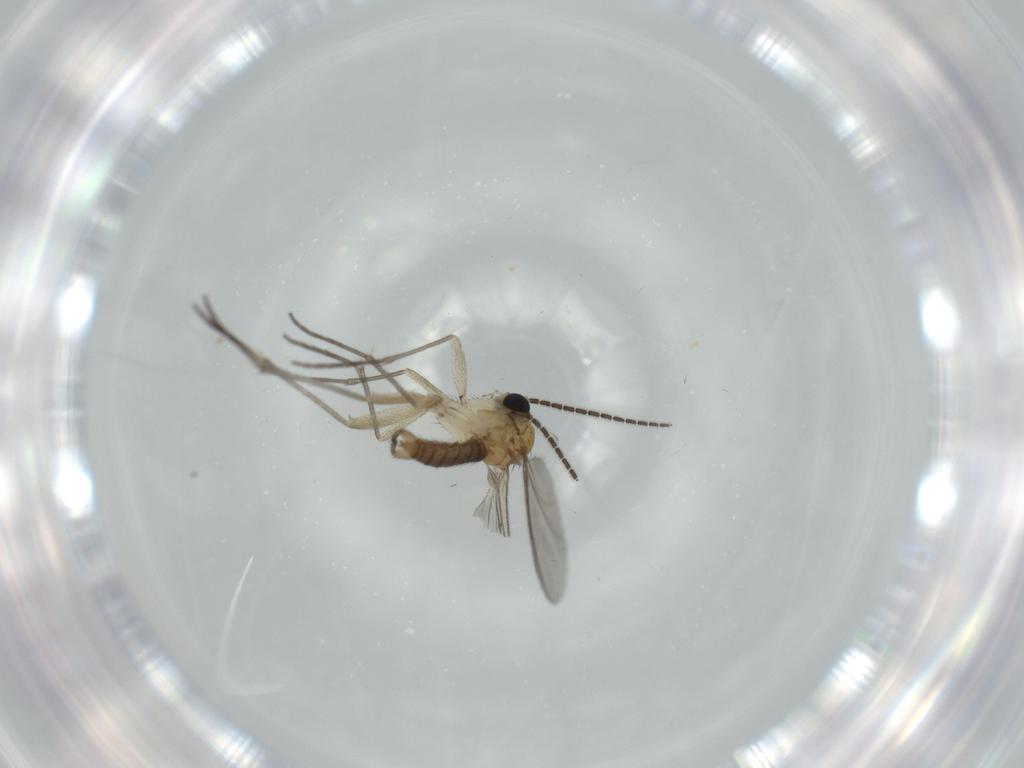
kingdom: Animalia
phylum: Arthropoda
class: Insecta
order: Diptera
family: Sciaridae
